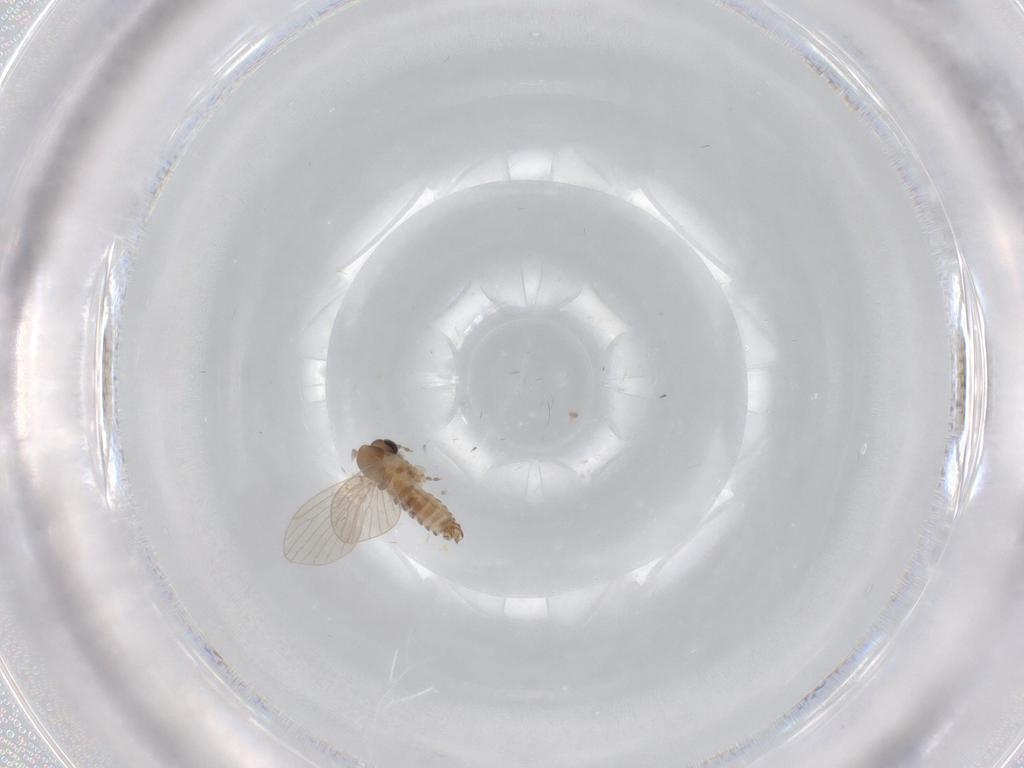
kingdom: Animalia
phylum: Arthropoda
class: Insecta
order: Diptera
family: Psychodidae
